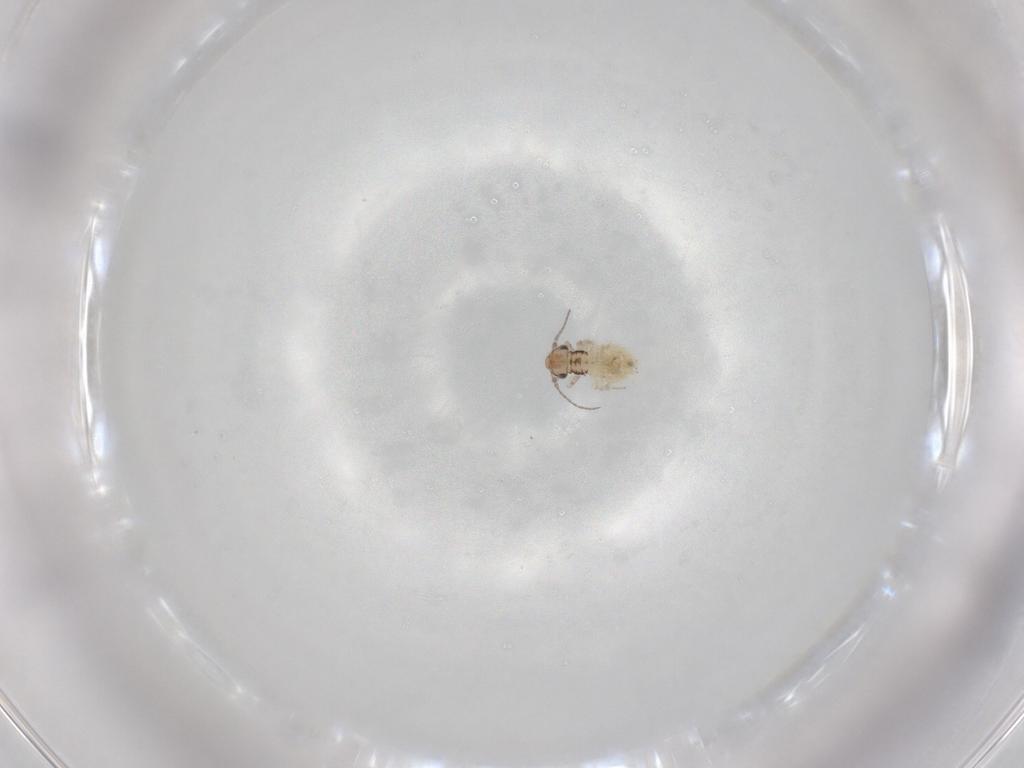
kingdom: Animalia
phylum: Arthropoda
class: Insecta
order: Psocodea
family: Lepidopsocidae
